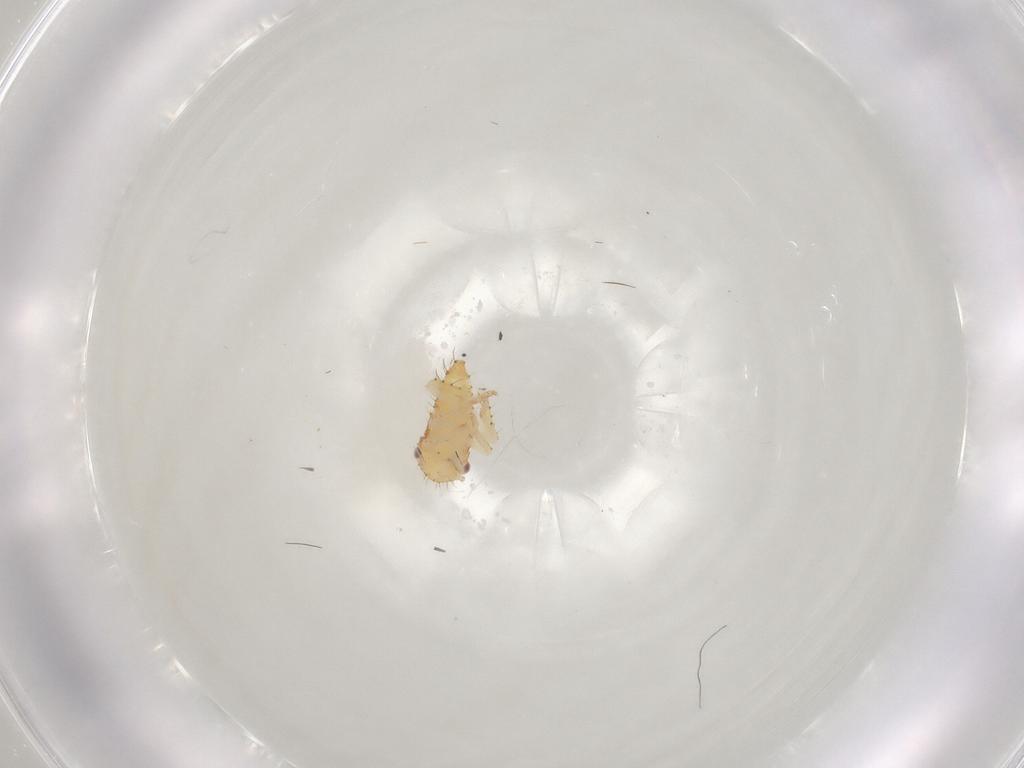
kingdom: Animalia
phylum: Arthropoda
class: Insecta
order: Hemiptera
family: Cicadellidae
